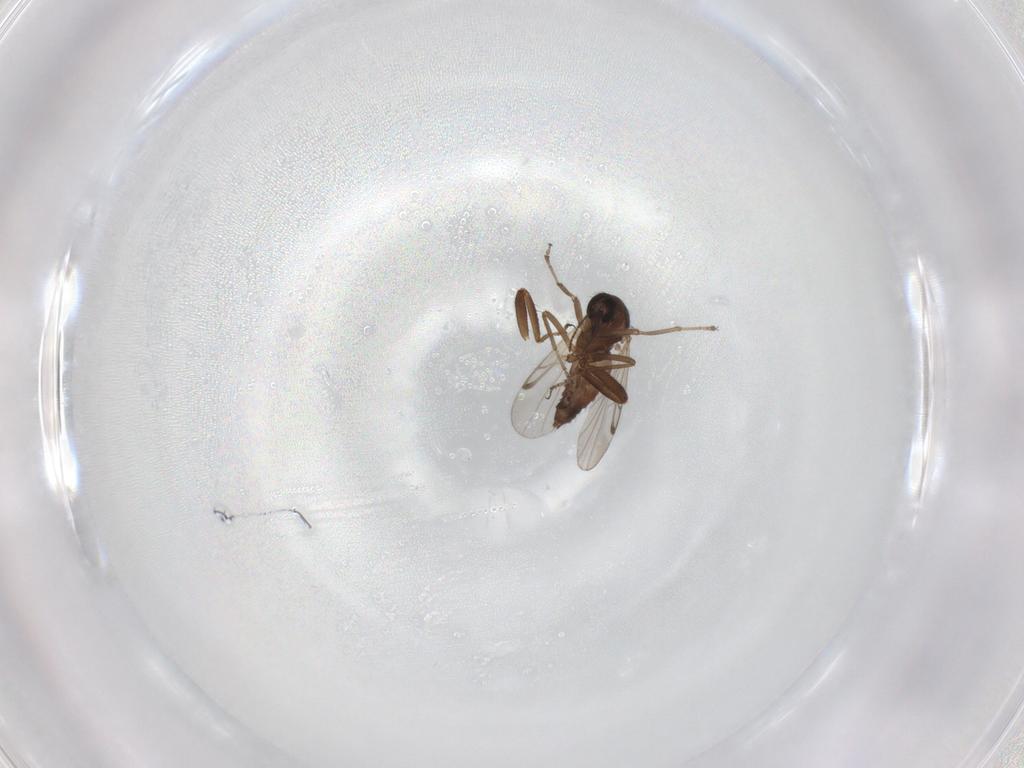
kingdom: Animalia
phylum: Arthropoda
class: Insecta
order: Diptera
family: Ceratopogonidae
